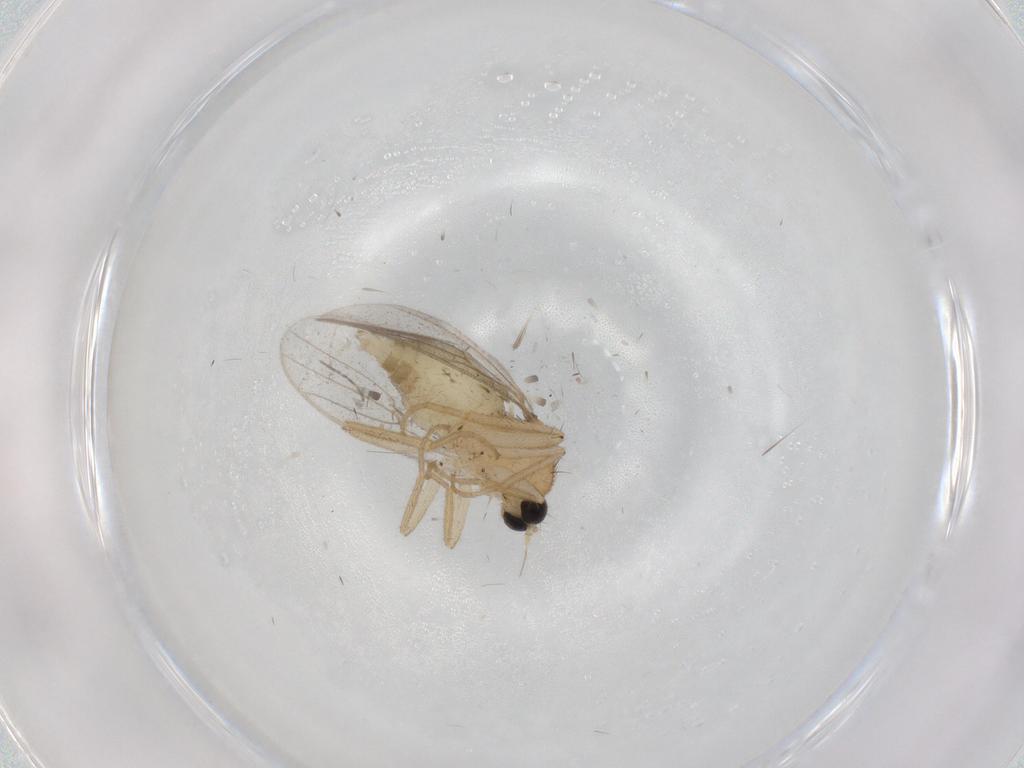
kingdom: Animalia
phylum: Arthropoda
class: Insecta
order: Diptera
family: Hybotidae
